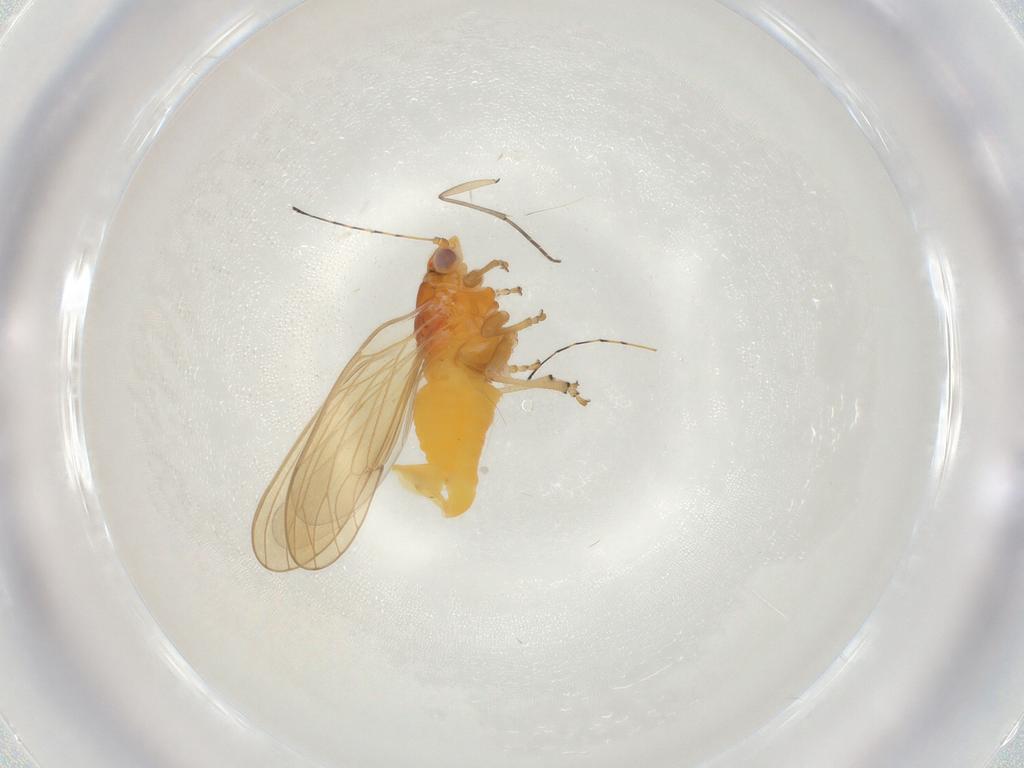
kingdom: Animalia
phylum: Arthropoda
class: Insecta
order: Diptera
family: Sciaridae
